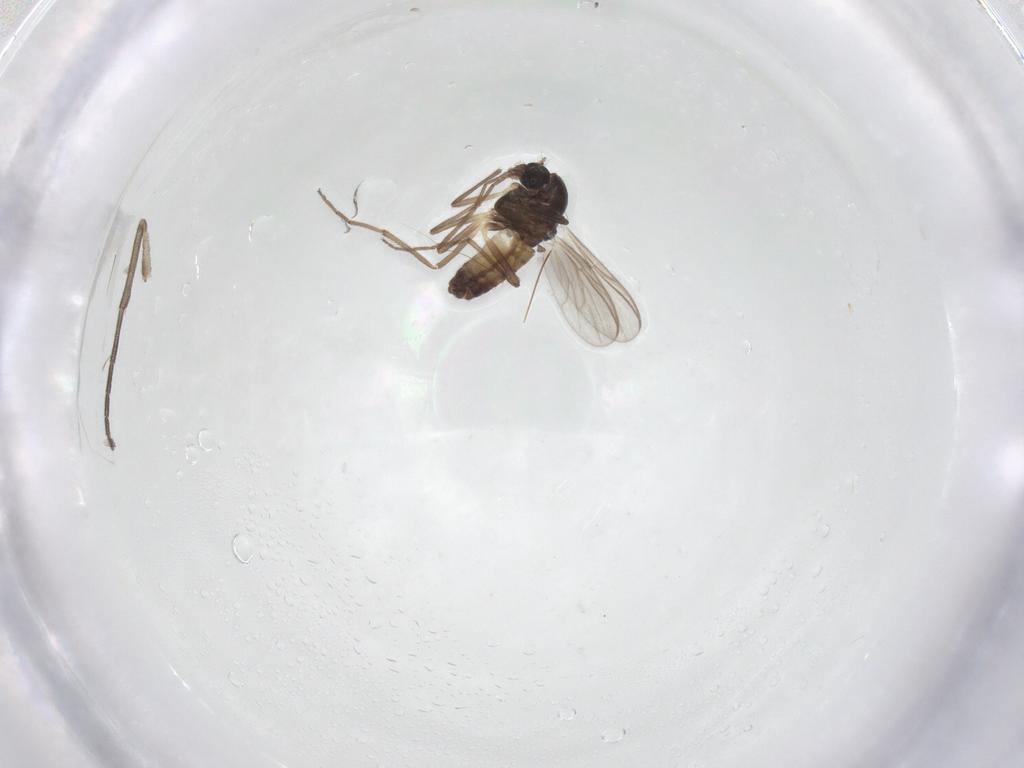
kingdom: Animalia
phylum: Arthropoda
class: Insecta
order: Diptera
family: Chironomidae
